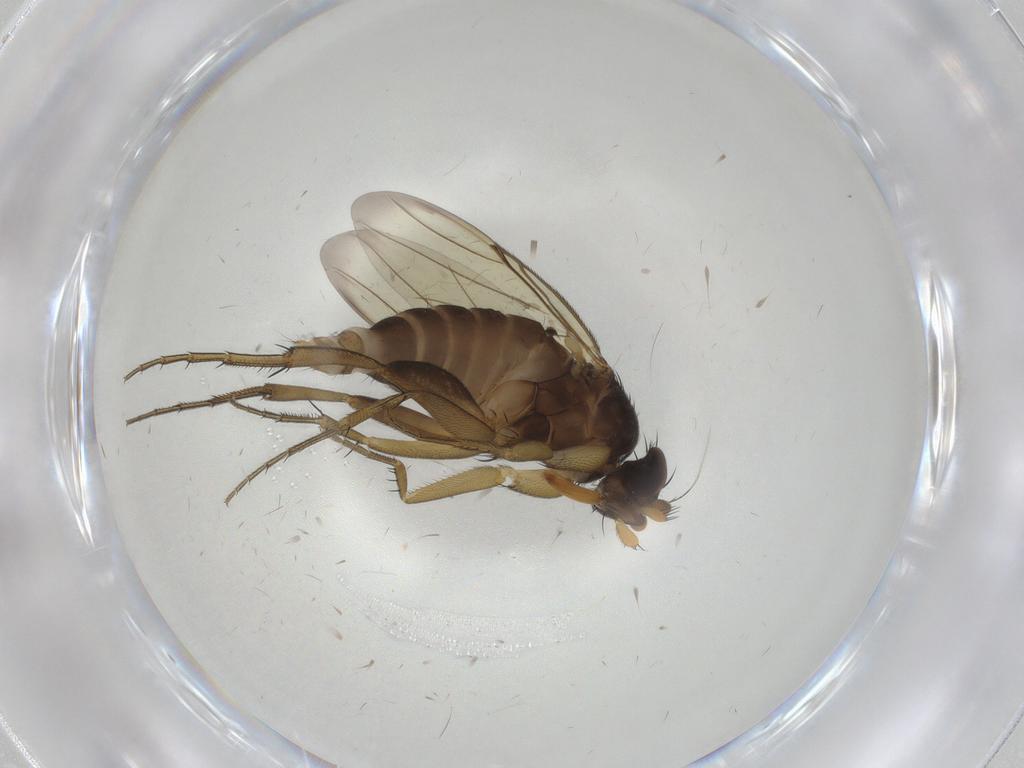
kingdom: Animalia
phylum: Arthropoda
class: Insecta
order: Diptera
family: Phoridae
